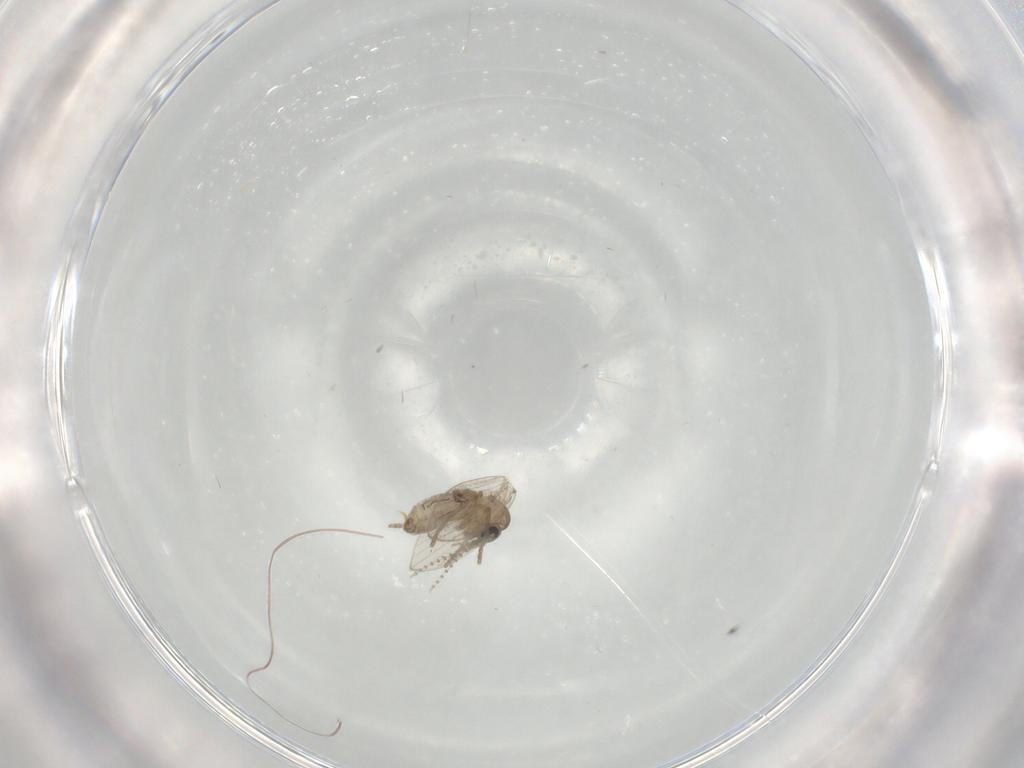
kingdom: Animalia
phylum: Arthropoda
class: Insecta
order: Diptera
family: Psychodidae
